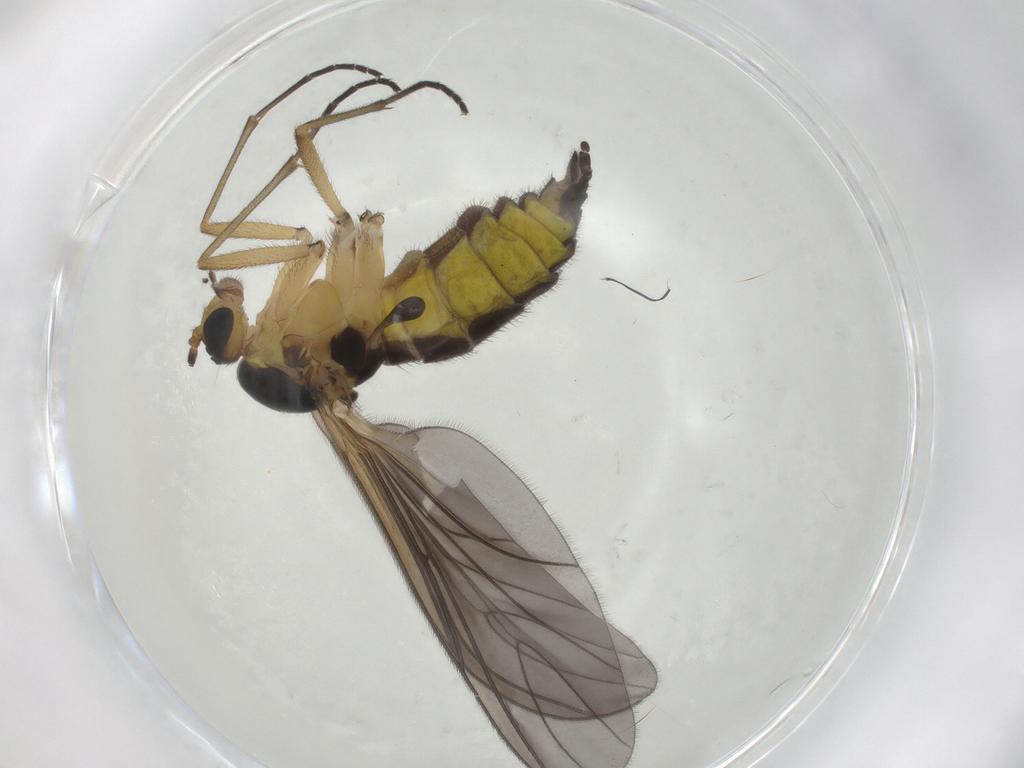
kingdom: Animalia
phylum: Arthropoda
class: Insecta
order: Diptera
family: Sciaridae
